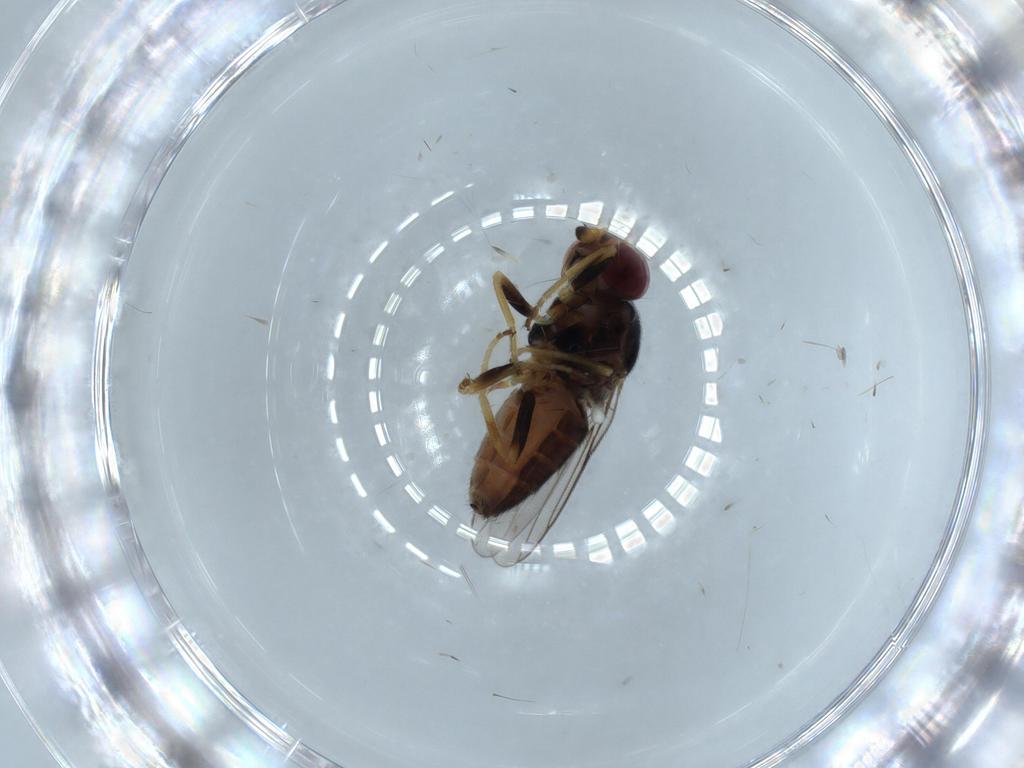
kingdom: Animalia
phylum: Arthropoda
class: Insecta
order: Diptera
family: Chloropidae
